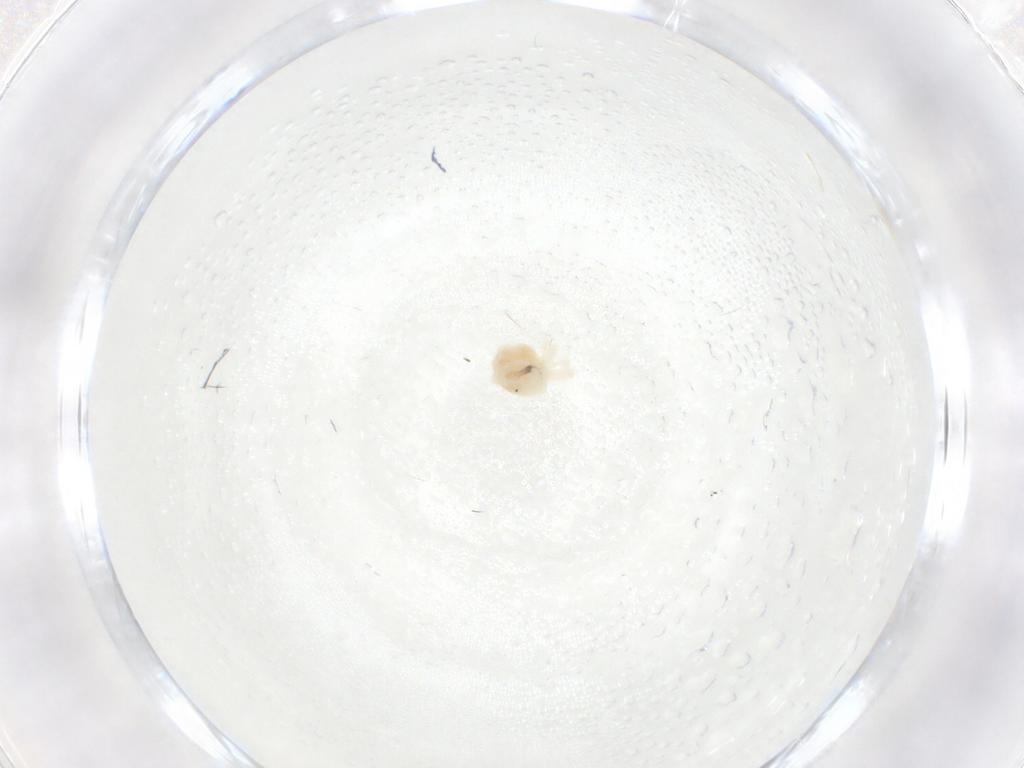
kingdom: Animalia
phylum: Arthropoda
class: Arachnida
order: Trombidiformes
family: Anystidae
